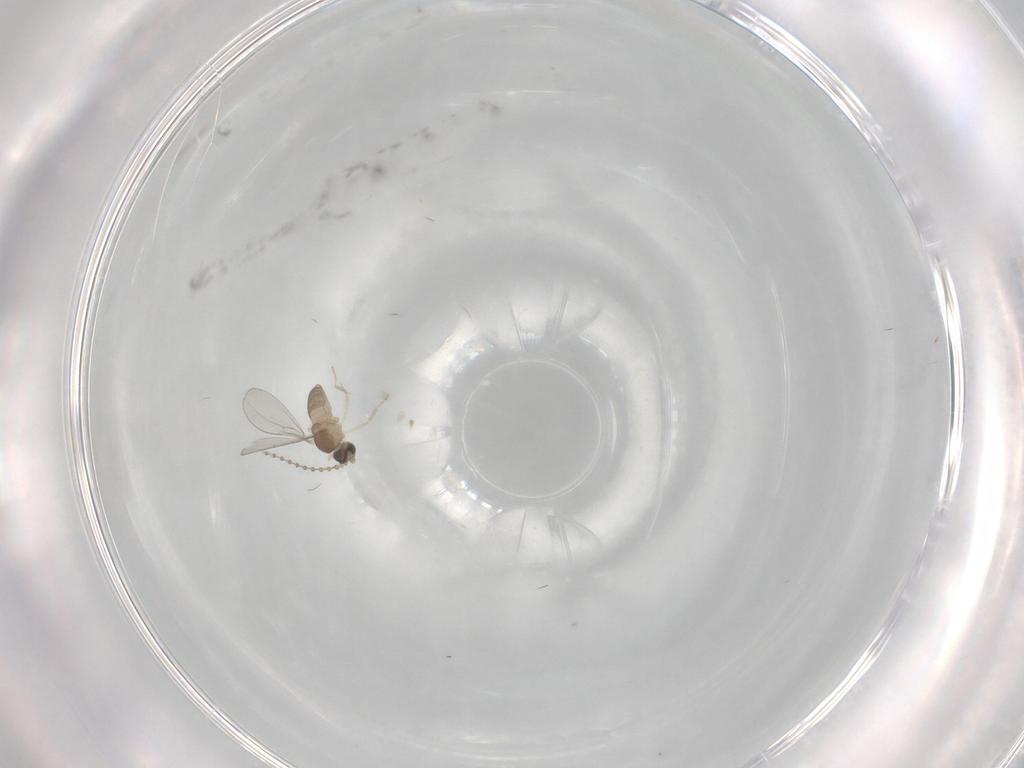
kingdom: Animalia
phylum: Arthropoda
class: Insecta
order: Diptera
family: Cecidomyiidae
